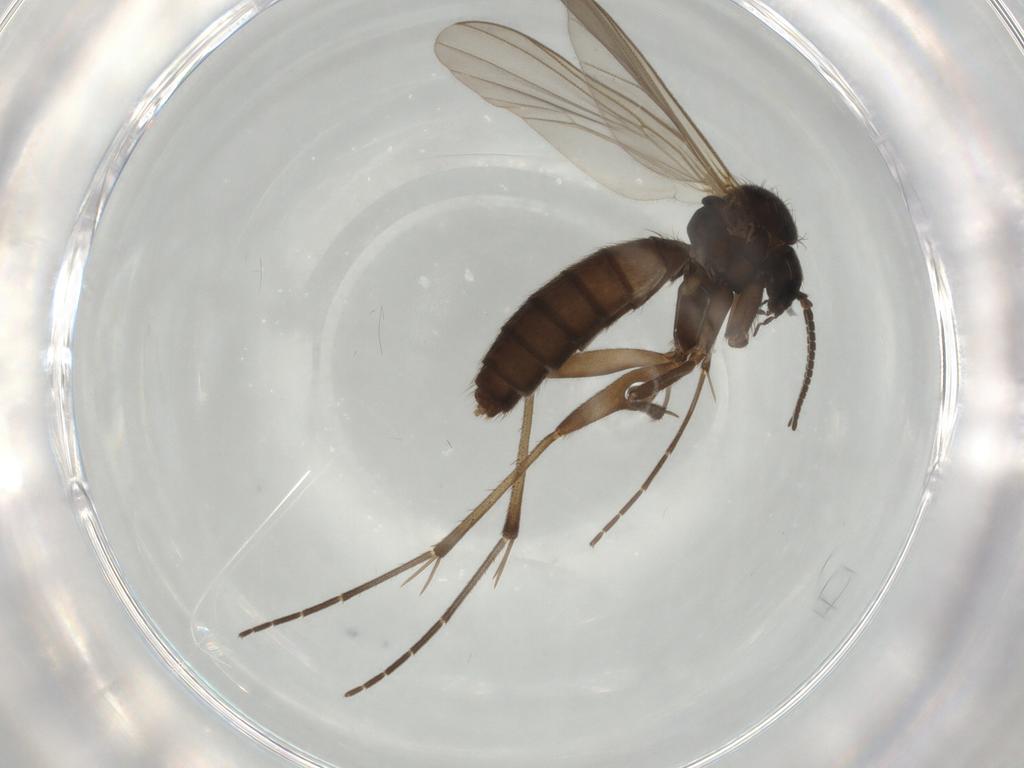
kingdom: Animalia
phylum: Arthropoda
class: Insecta
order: Diptera
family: Mycetophilidae
